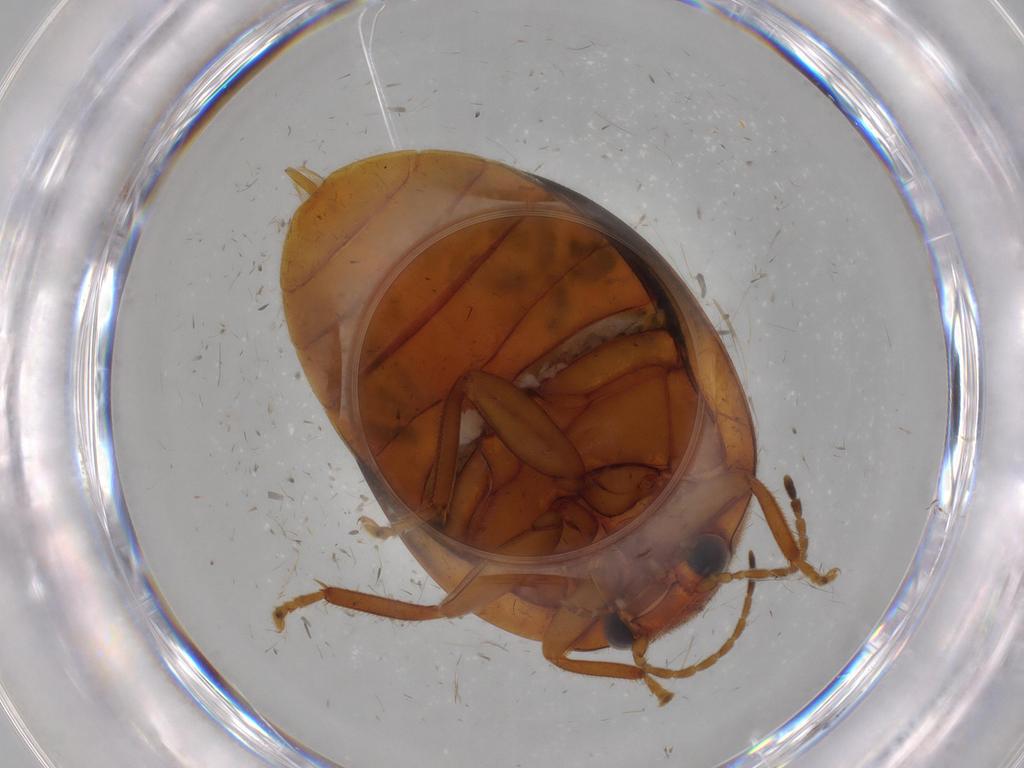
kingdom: Animalia
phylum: Arthropoda
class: Insecta
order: Coleoptera
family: Scirtidae
